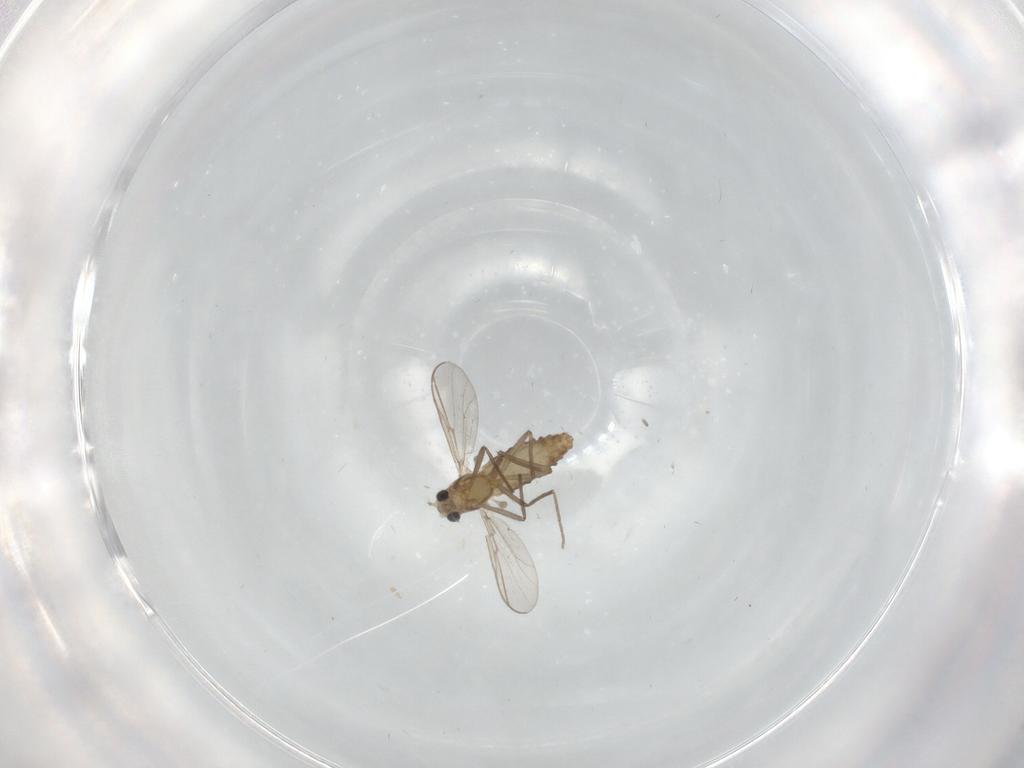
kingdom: Animalia
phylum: Arthropoda
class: Insecta
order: Diptera
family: Chironomidae
